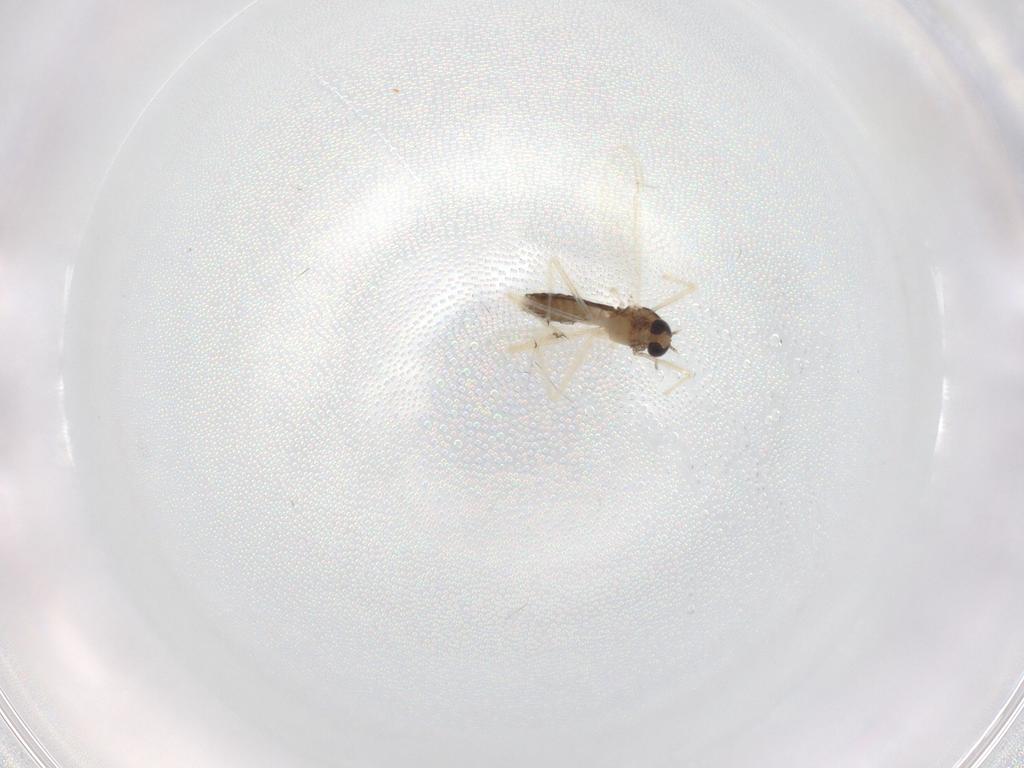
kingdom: Animalia
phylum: Arthropoda
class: Insecta
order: Diptera
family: Chironomidae
